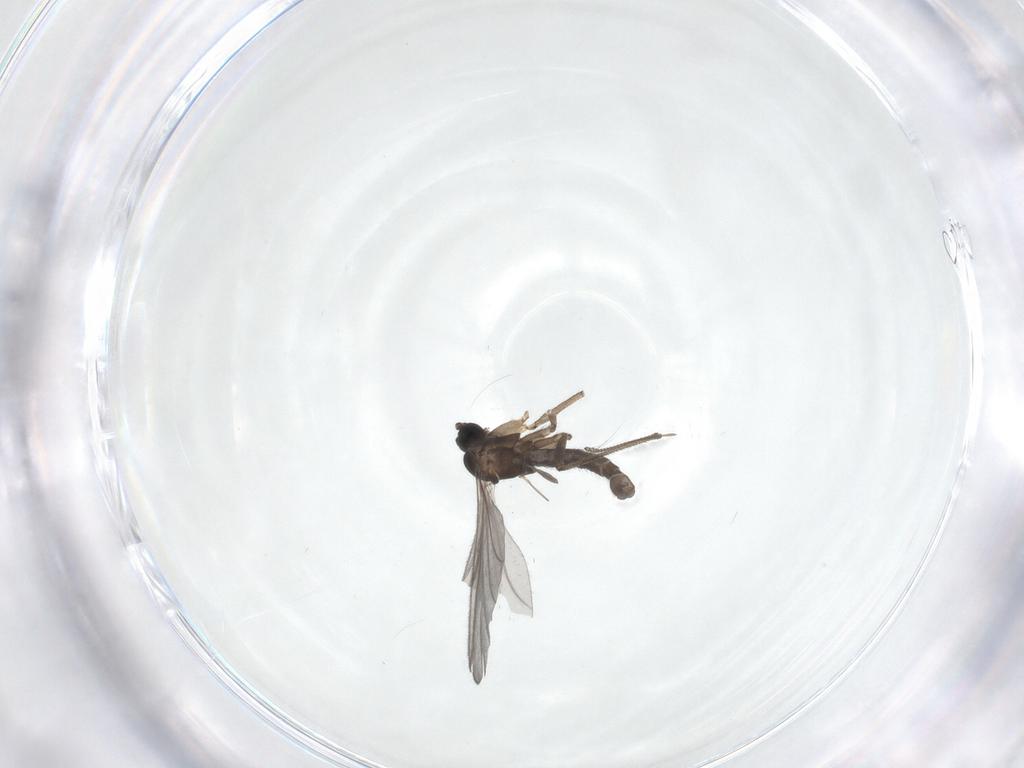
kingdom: Animalia
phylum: Arthropoda
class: Insecta
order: Diptera
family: Chironomidae
